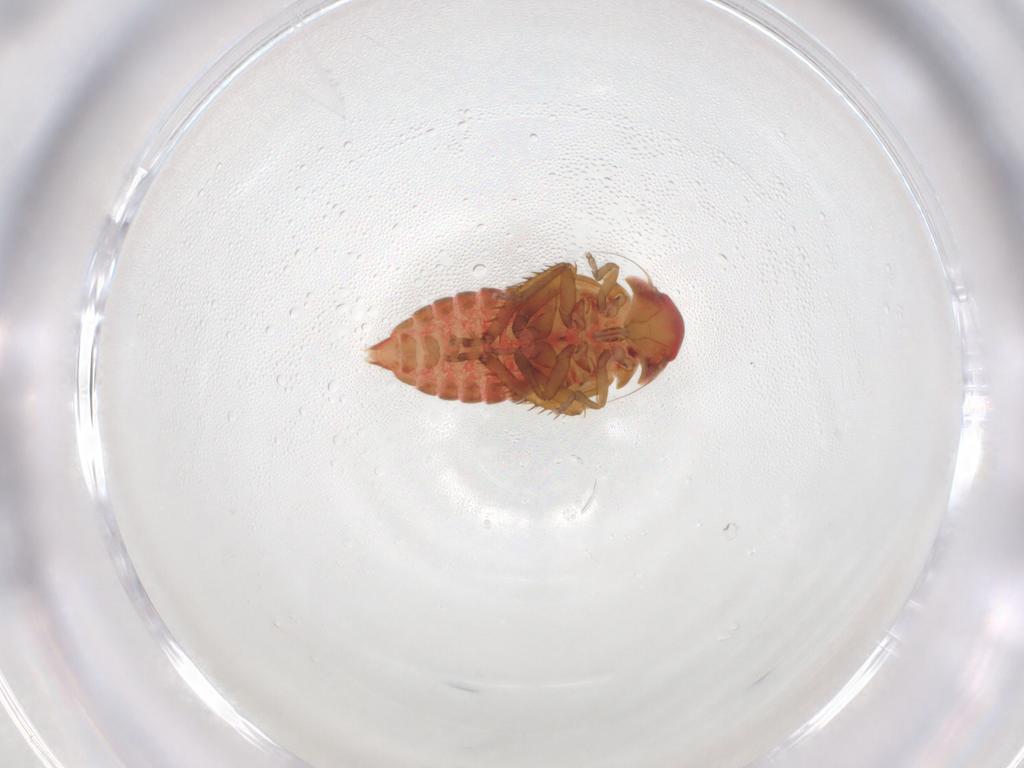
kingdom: Animalia
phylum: Arthropoda
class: Insecta
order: Hemiptera
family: Cicadellidae
